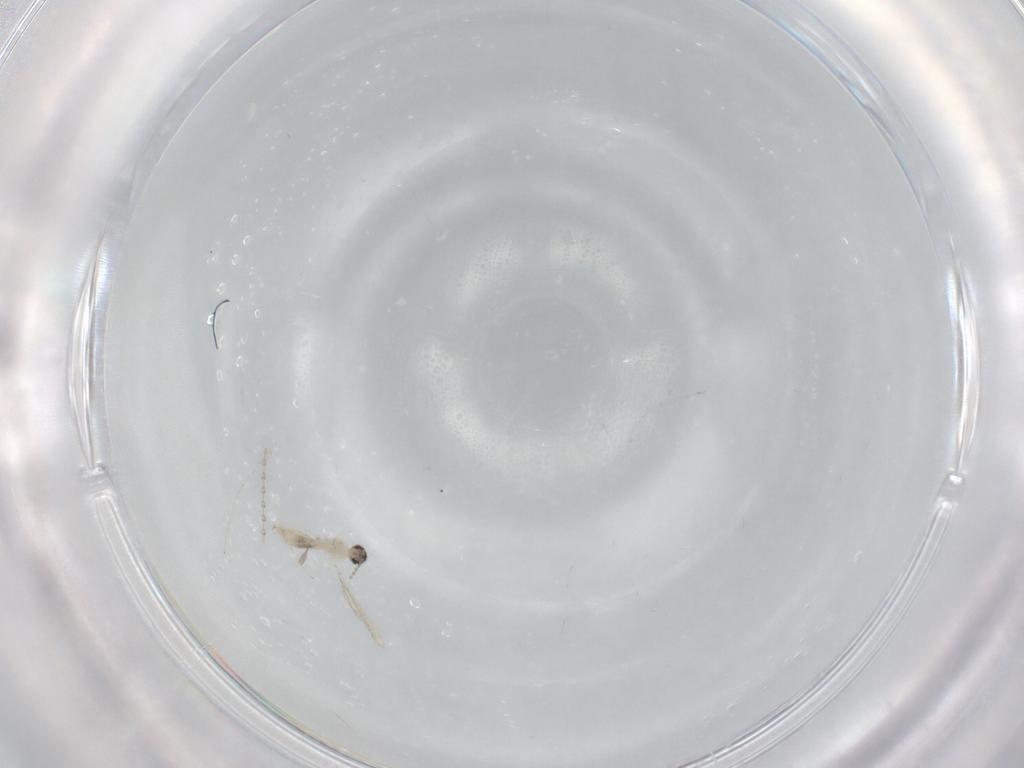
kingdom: Animalia
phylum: Arthropoda
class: Insecta
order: Diptera
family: Cecidomyiidae
